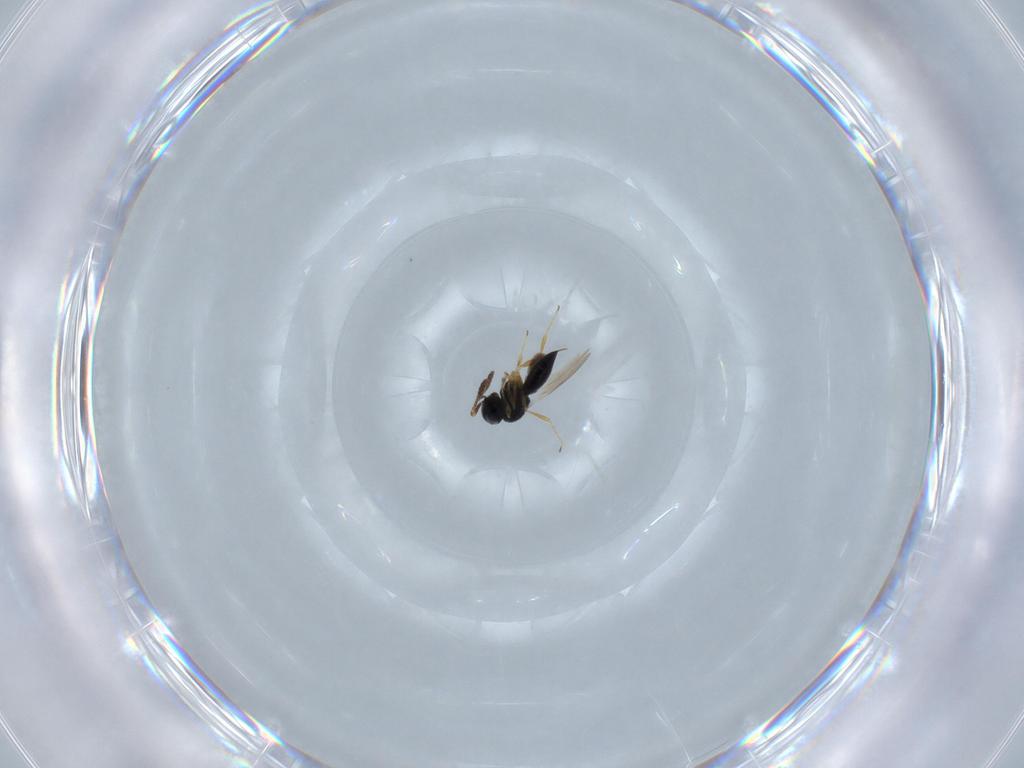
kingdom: Animalia
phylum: Arthropoda
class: Insecta
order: Hymenoptera
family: Scelionidae
